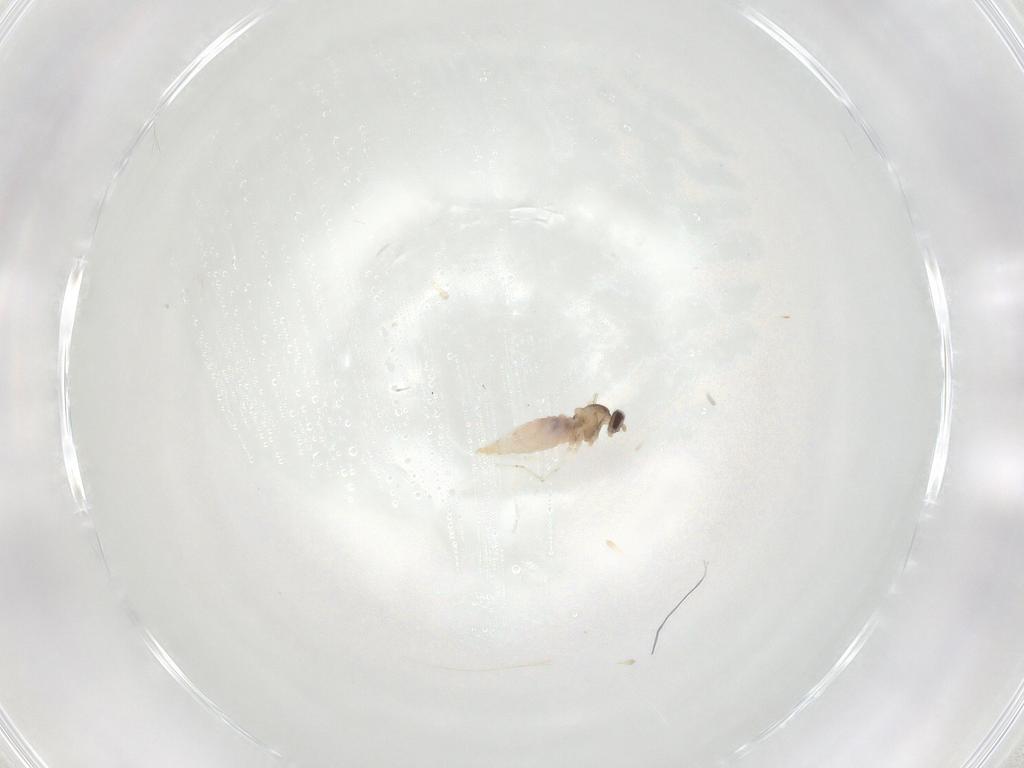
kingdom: Animalia
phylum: Arthropoda
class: Insecta
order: Diptera
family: Cecidomyiidae
